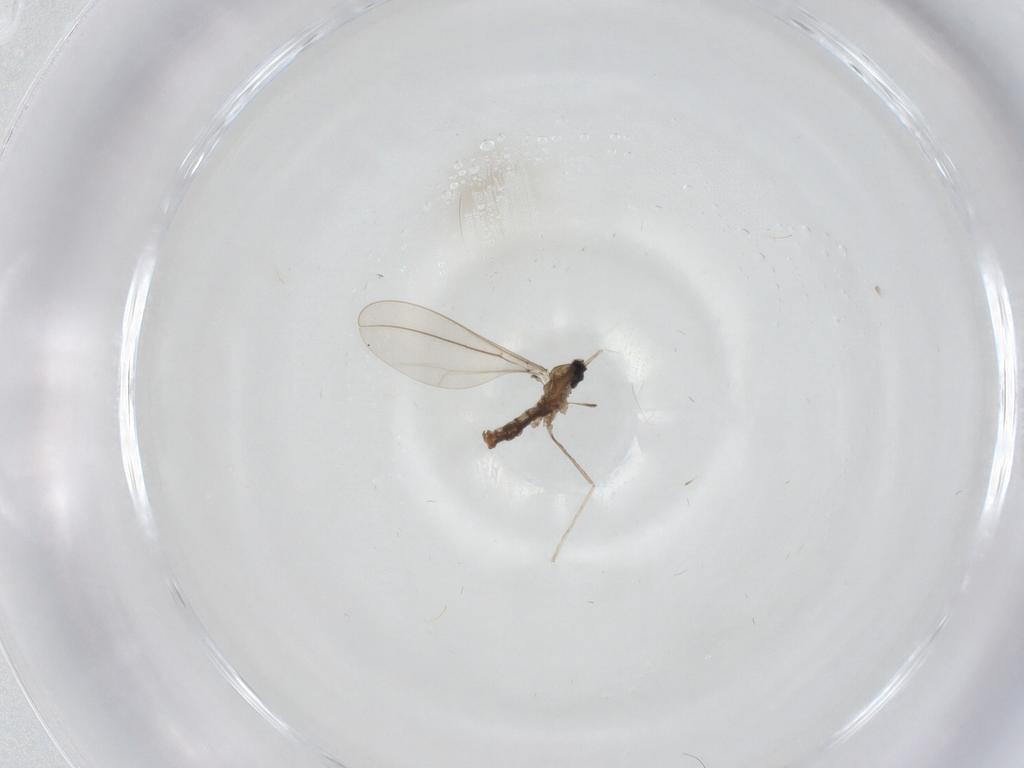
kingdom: Animalia
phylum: Arthropoda
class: Insecta
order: Diptera
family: Cecidomyiidae
